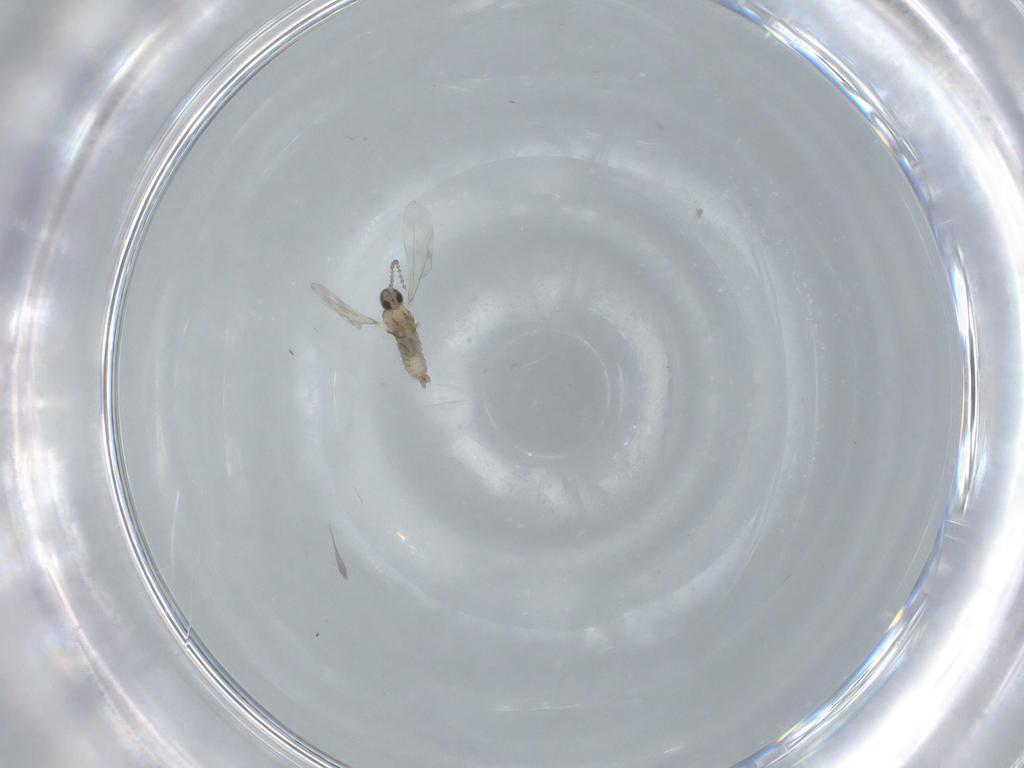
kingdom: Animalia
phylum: Arthropoda
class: Insecta
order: Diptera
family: Cecidomyiidae
